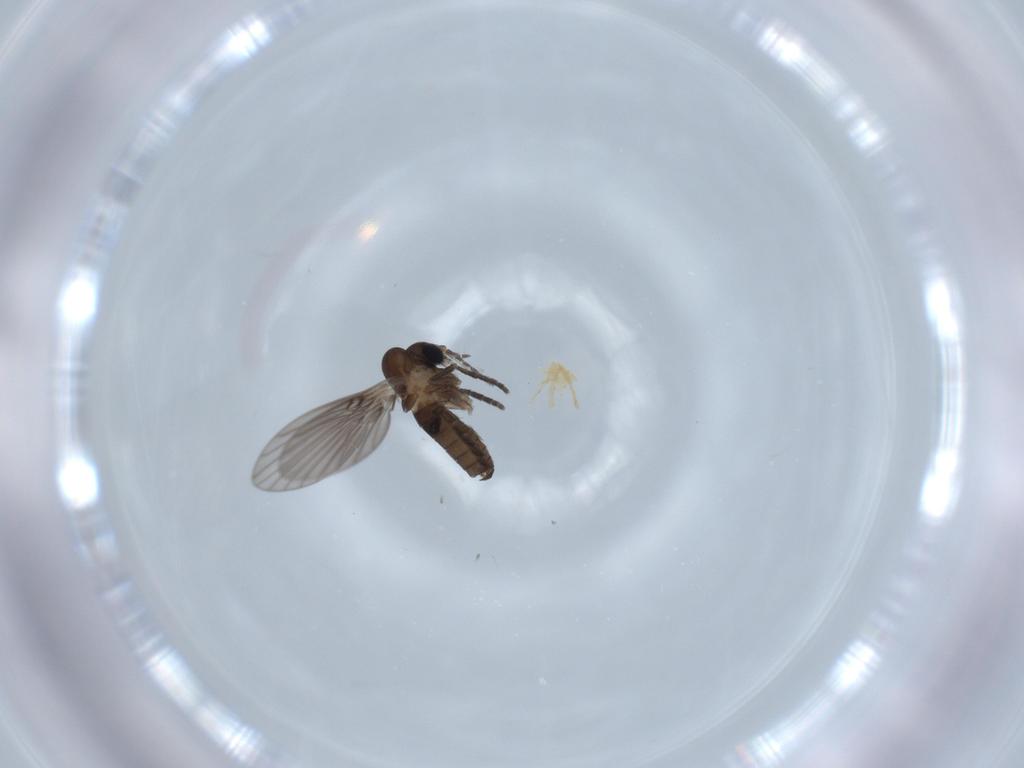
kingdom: Animalia
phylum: Arthropoda
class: Insecta
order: Diptera
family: Psychodidae
